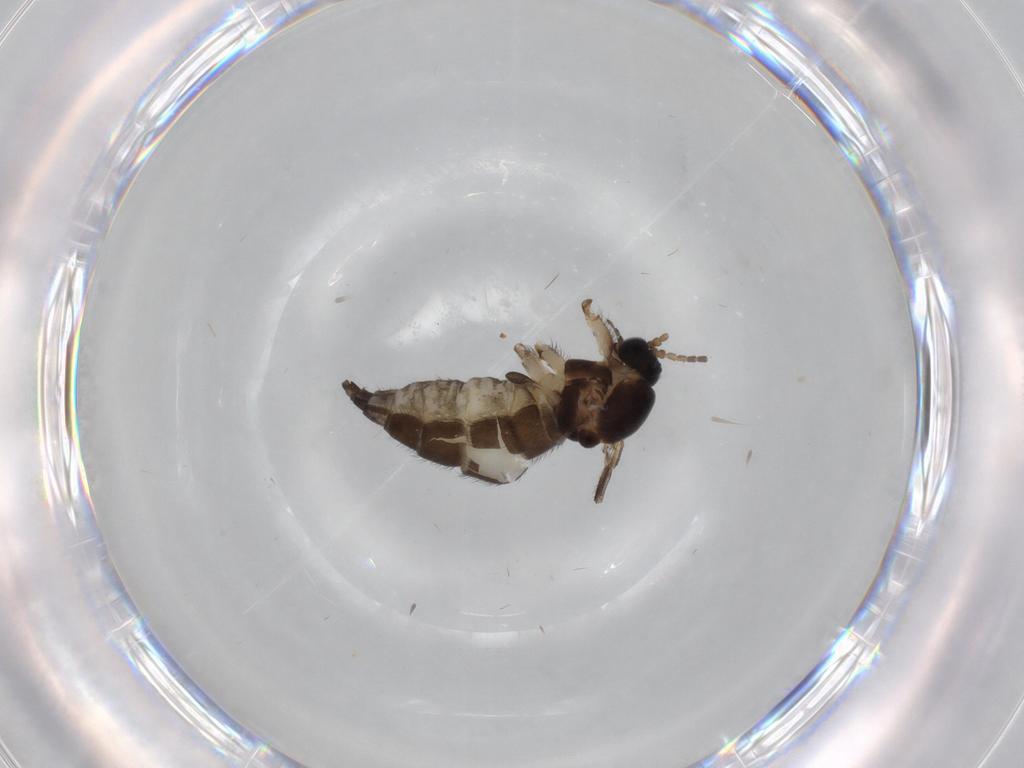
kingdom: Animalia
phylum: Arthropoda
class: Insecta
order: Diptera
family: Sciaridae
